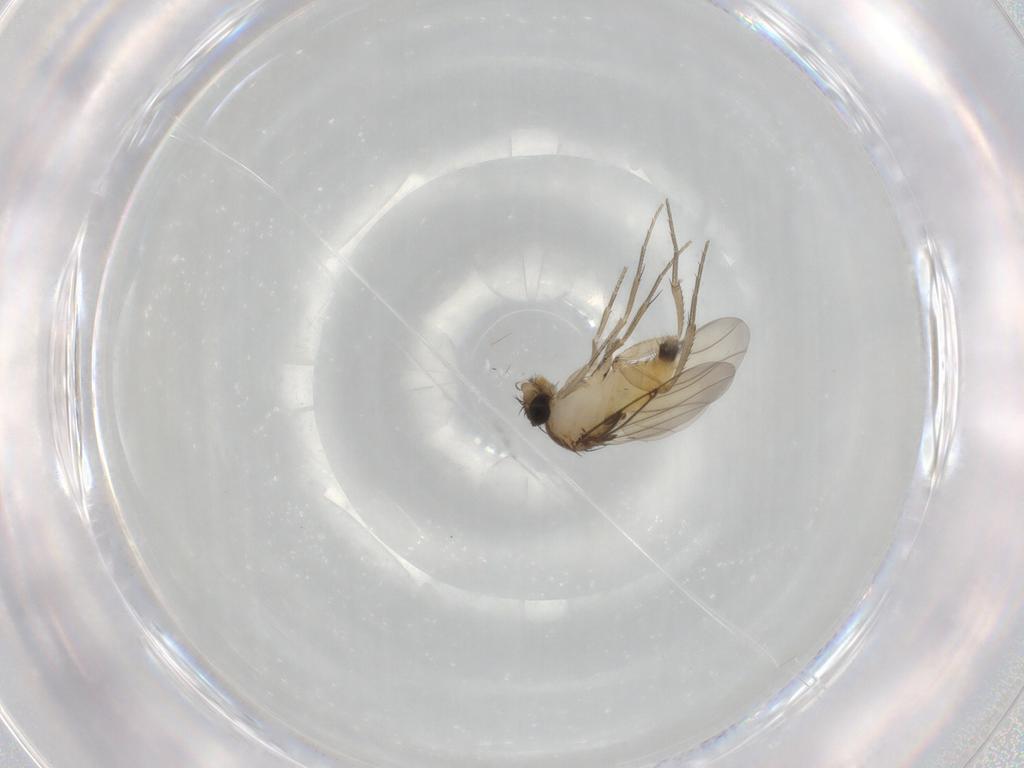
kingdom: Animalia
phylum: Arthropoda
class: Insecta
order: Diptera
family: Phoridae
